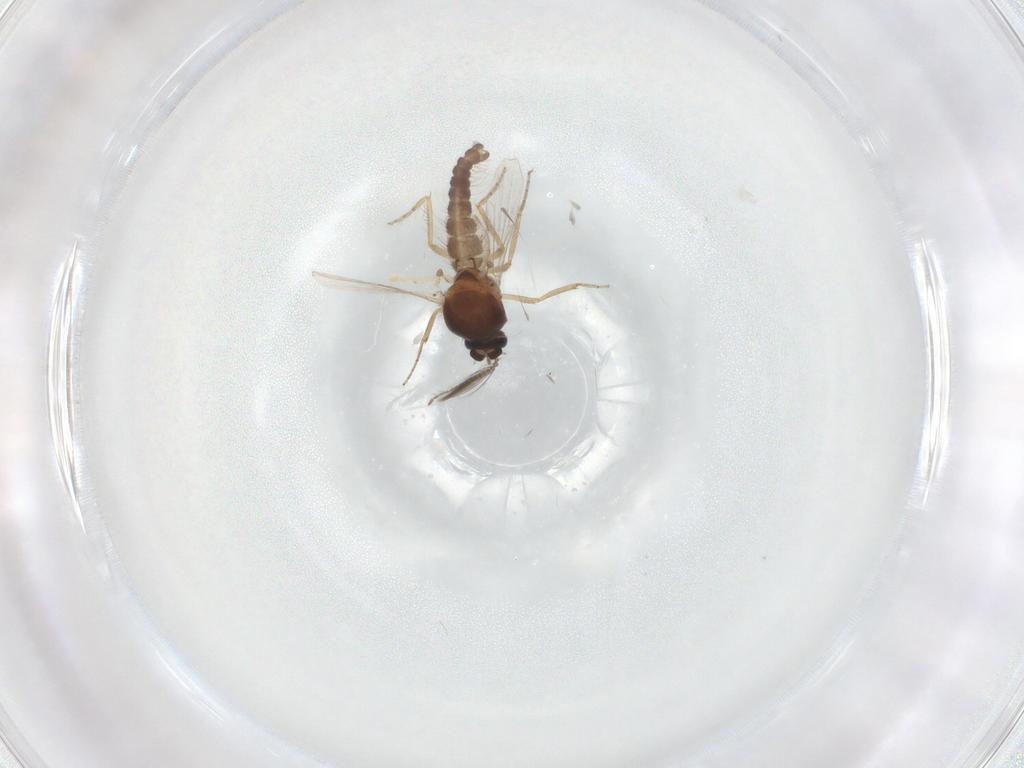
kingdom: Animalia
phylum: Arthropoda
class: Insecta
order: Diptera
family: Ceratopogonidae
